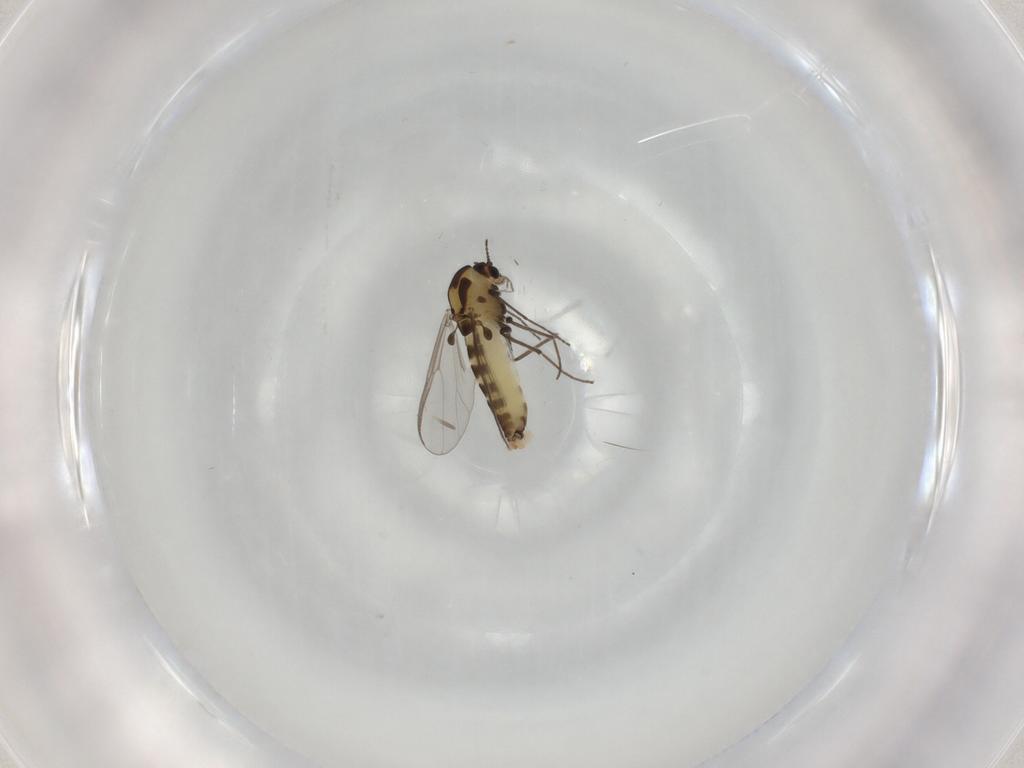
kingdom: Animalia
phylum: Arthropoda
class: Insecta
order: Diptera
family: Chironomidae
